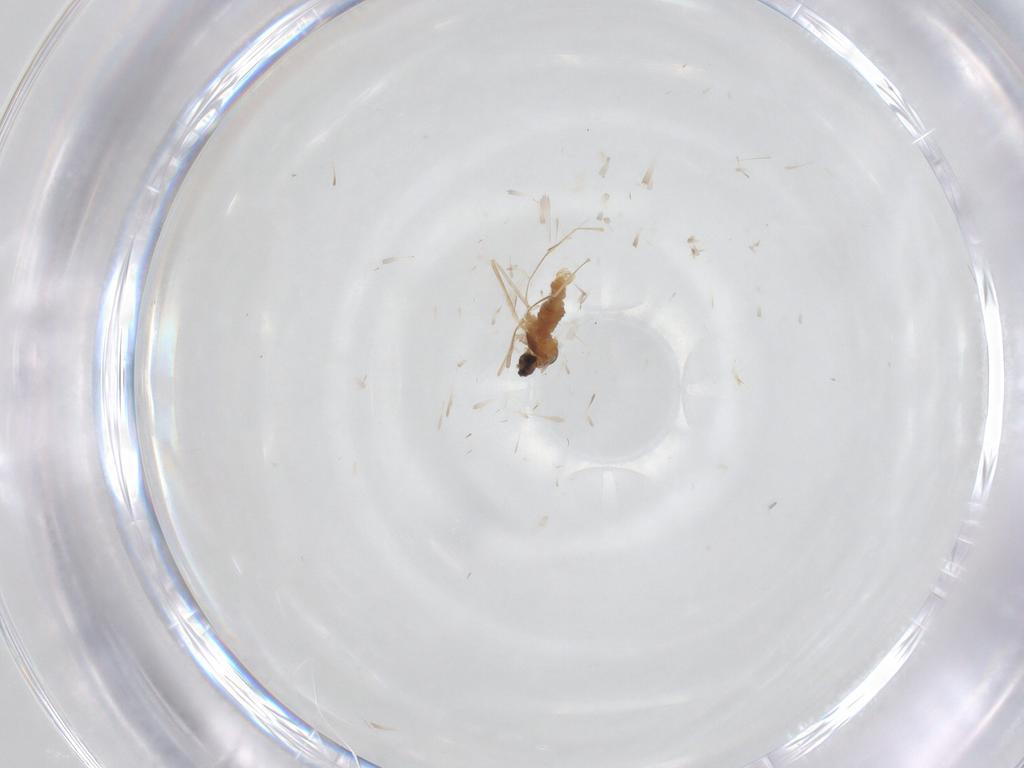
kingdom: Animalia
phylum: Arthropoda
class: Insecta
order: Diptera
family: Cecidomyiidae
